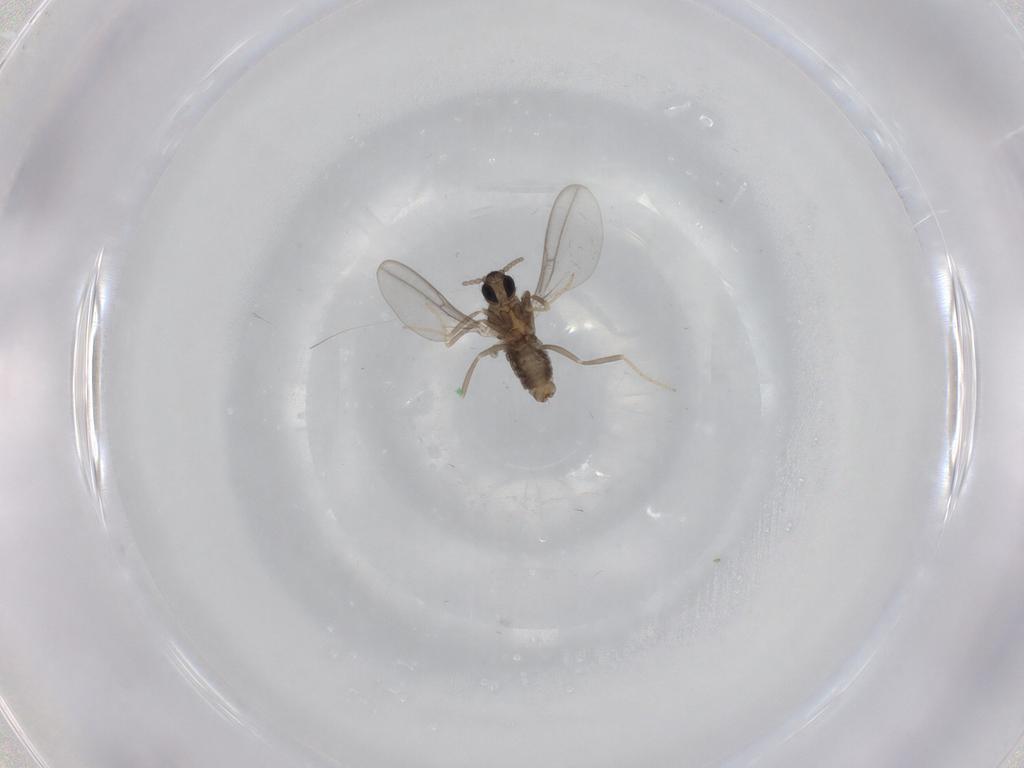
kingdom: Animalia
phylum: Arthropoda
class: Insecta
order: Diptera
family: Cecidomyiidae
